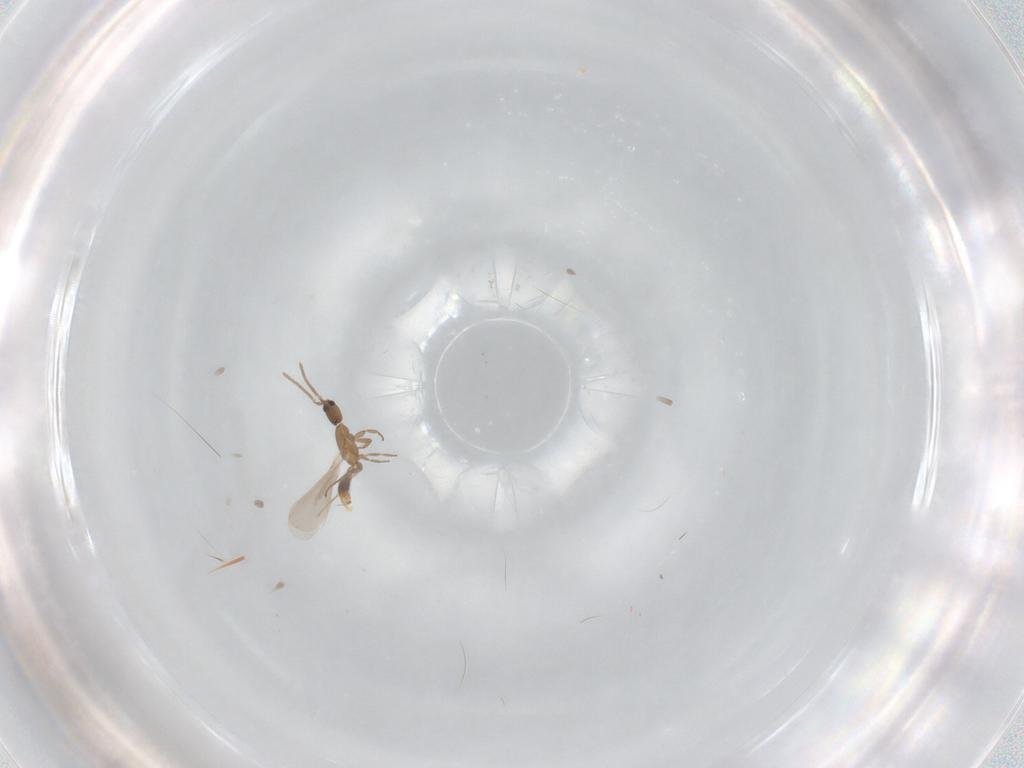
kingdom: Animalia
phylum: Arthropoda
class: Insecta
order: Hymenoptera
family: Formicidae
